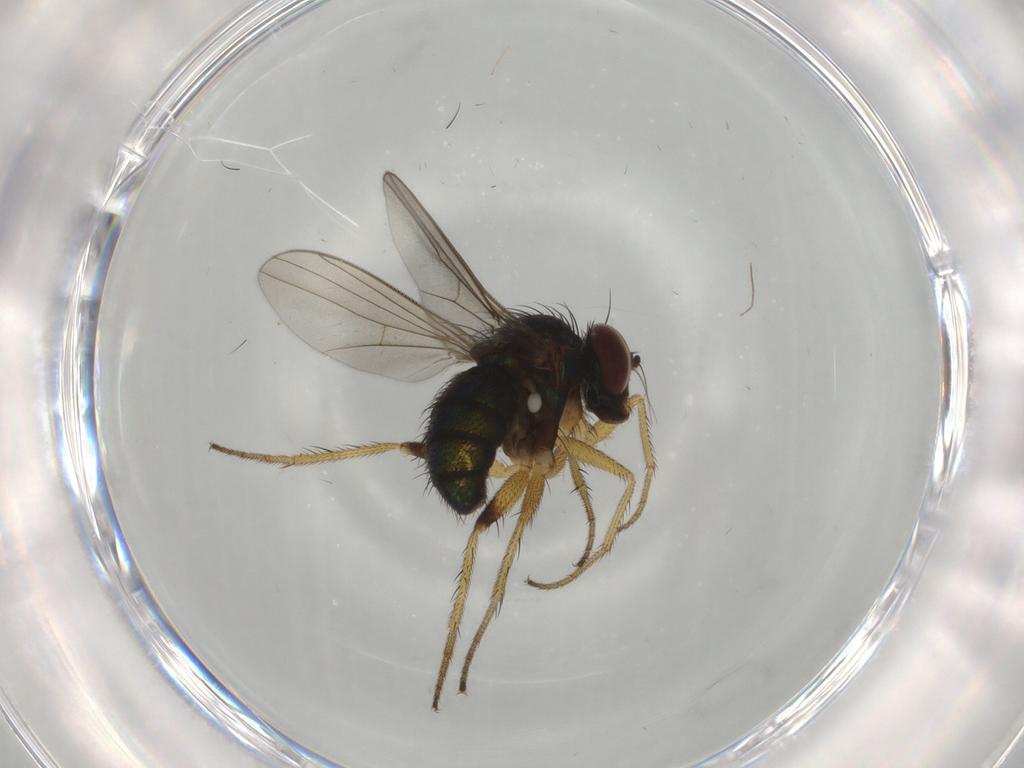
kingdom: Animalia
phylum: Arthropoda
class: Insecta
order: Diptera
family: Dolichopodidae
